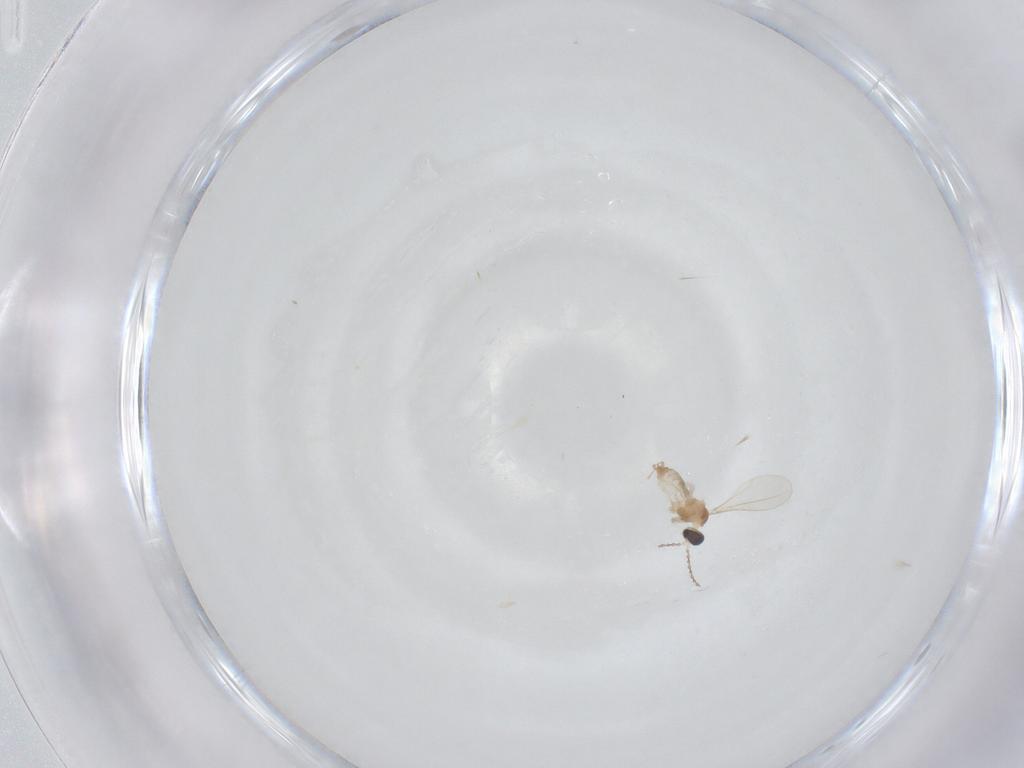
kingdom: Animalia
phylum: Arthropoda
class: Insecta
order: Diptera
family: Cecidomyiidae
